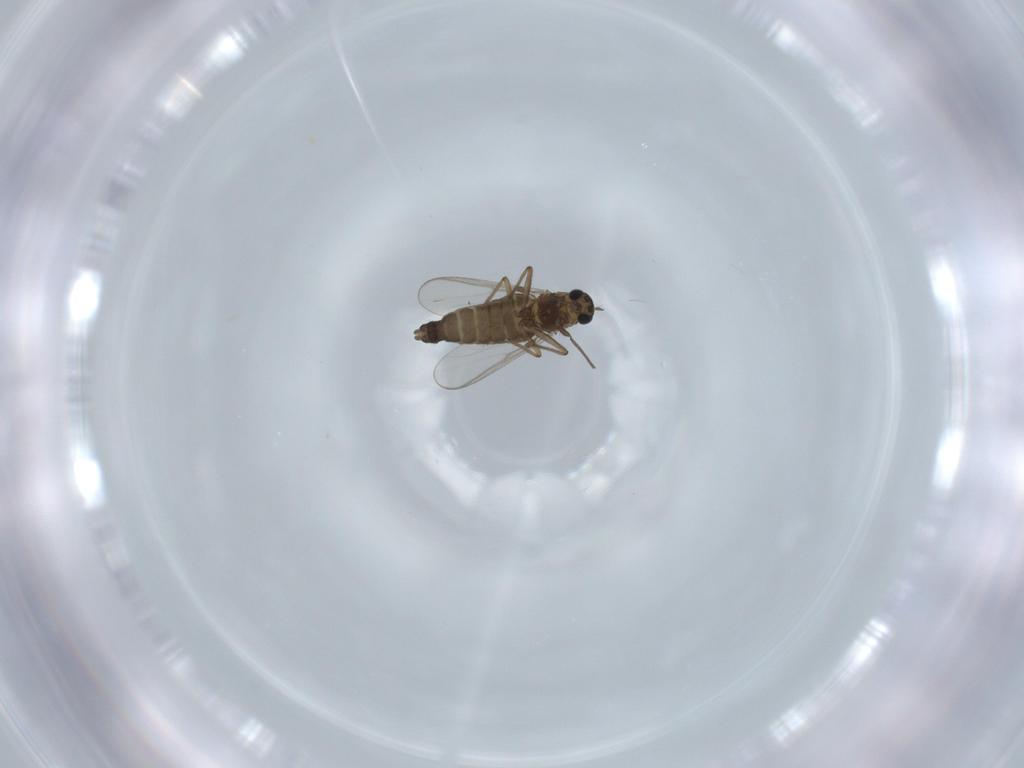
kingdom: Animalia
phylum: Arthropoda
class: Insecta
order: Diptera
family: Chironomidae
